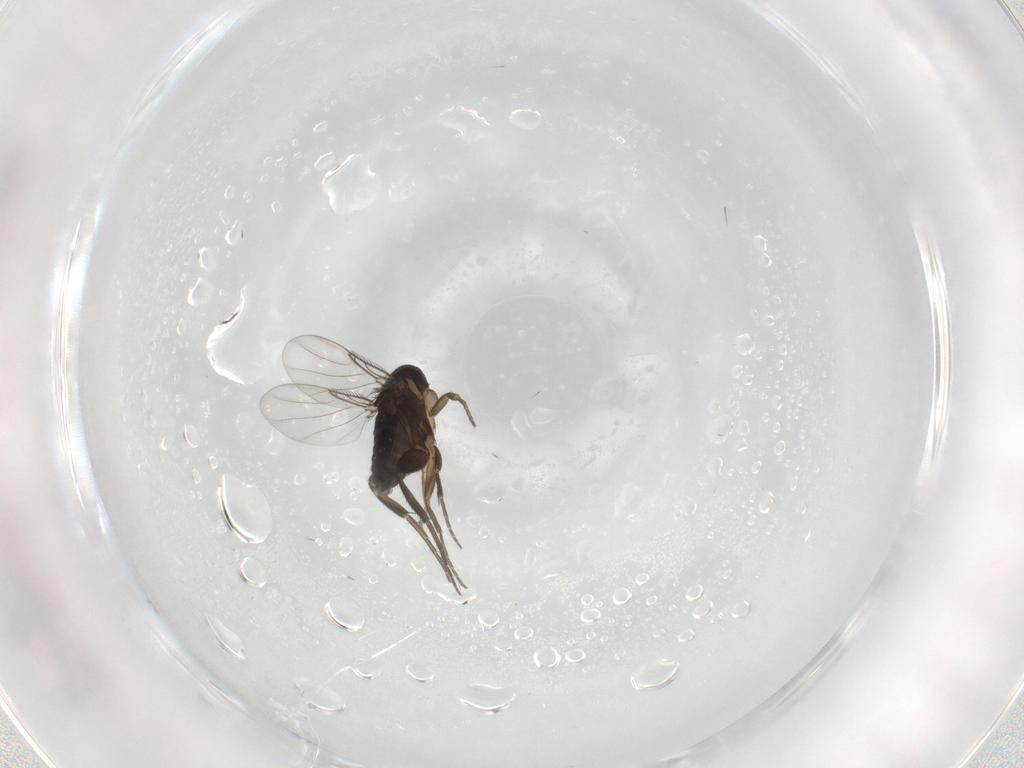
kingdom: Animalia
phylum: Arthropoda
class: Insecta
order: Diptera
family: Phoridae
